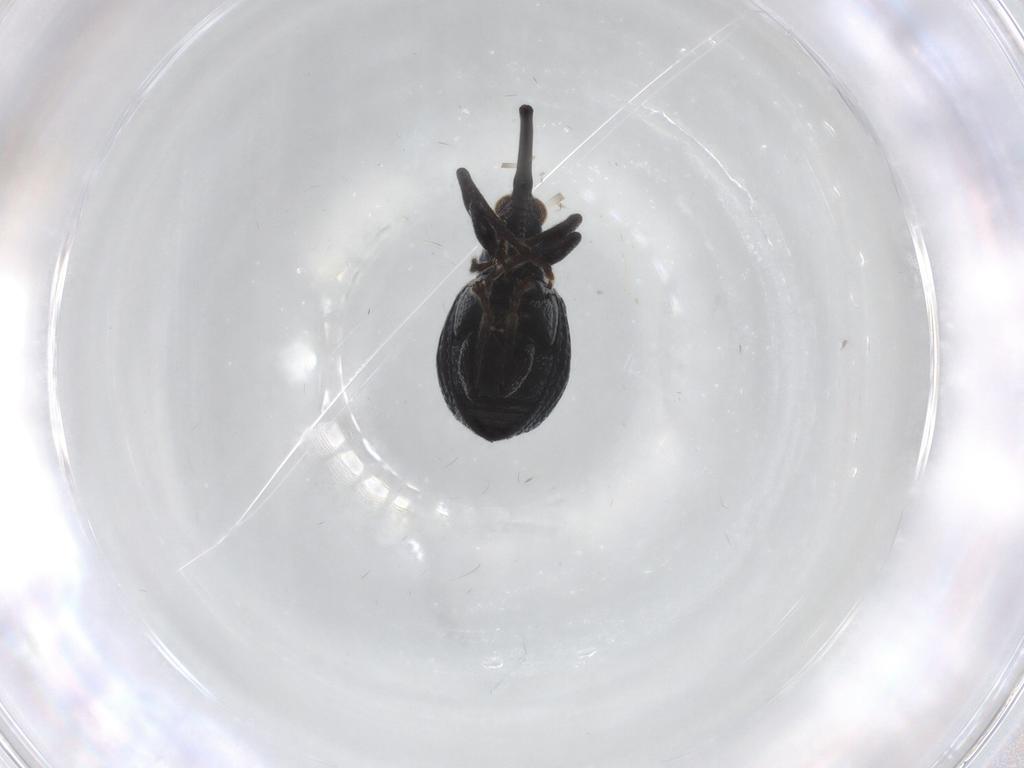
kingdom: Animalia
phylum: Arthropoda
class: Insecta
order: Coleoptera
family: Brentidae
